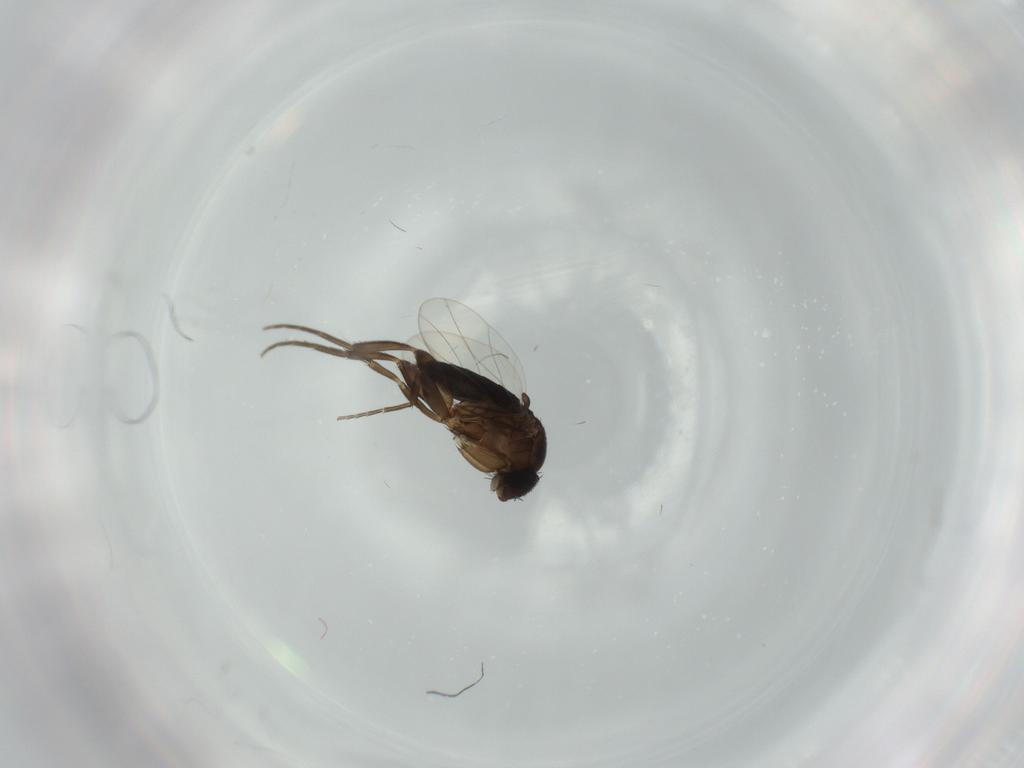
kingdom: Animalia
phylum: Arthropoda
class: Insecta
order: Diptera
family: Phoridae
